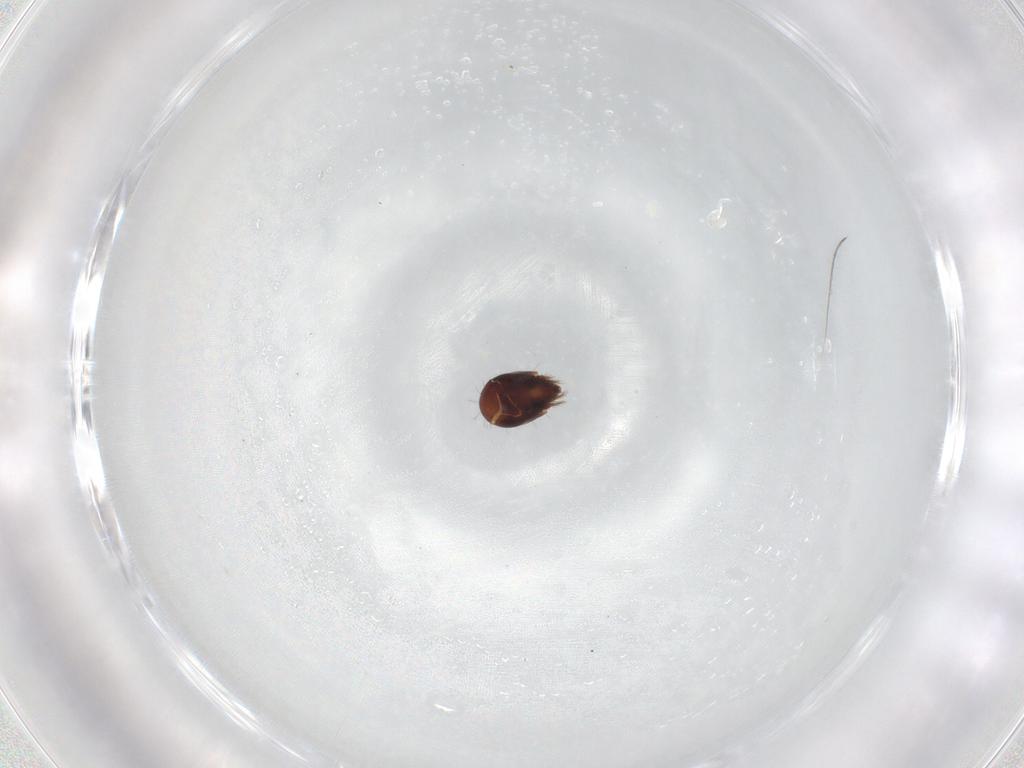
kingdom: Animalia
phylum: Arthropoda
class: Arachnida
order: Sarcoptiformes
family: Humerobatidae
